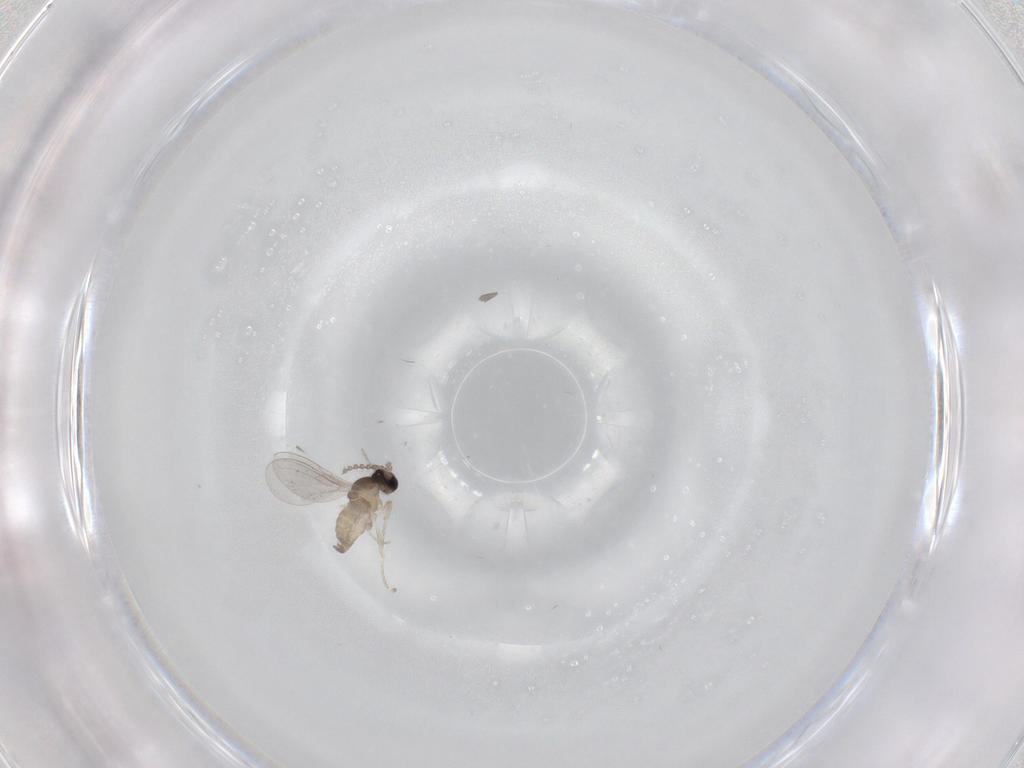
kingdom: Animalia
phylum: Arthropoda
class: Insecta
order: Diptera
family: Cecidomyiidae
